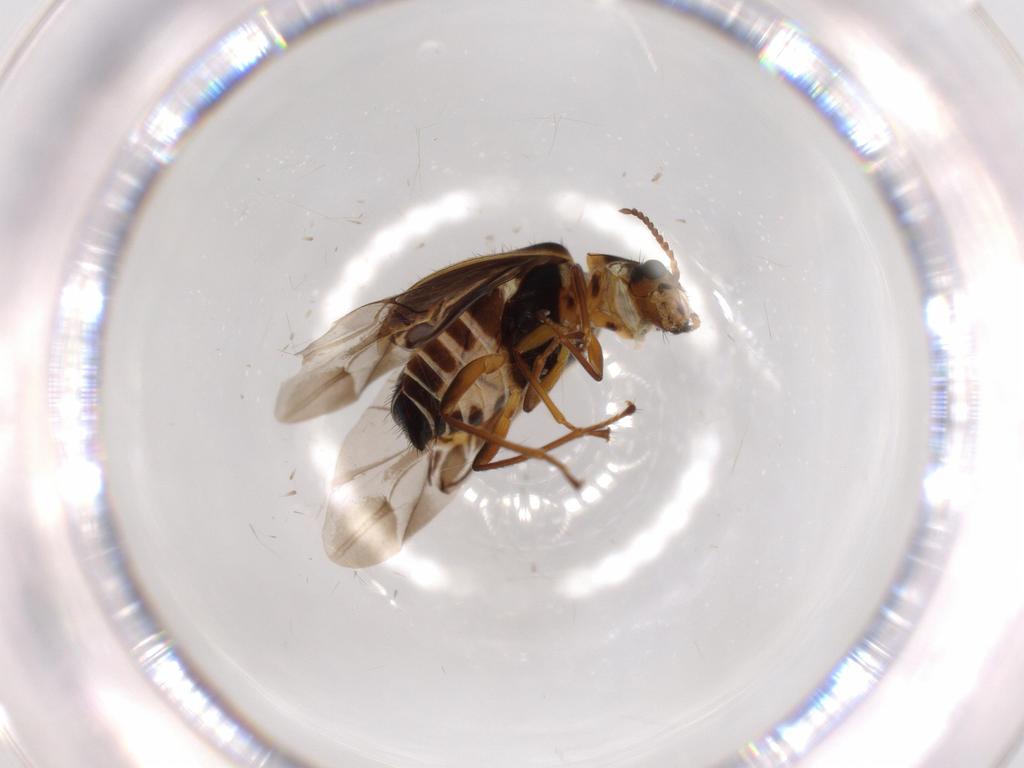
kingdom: Animalia
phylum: Arthropoda
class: Insecta
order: Coleoptera
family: Melyridae
